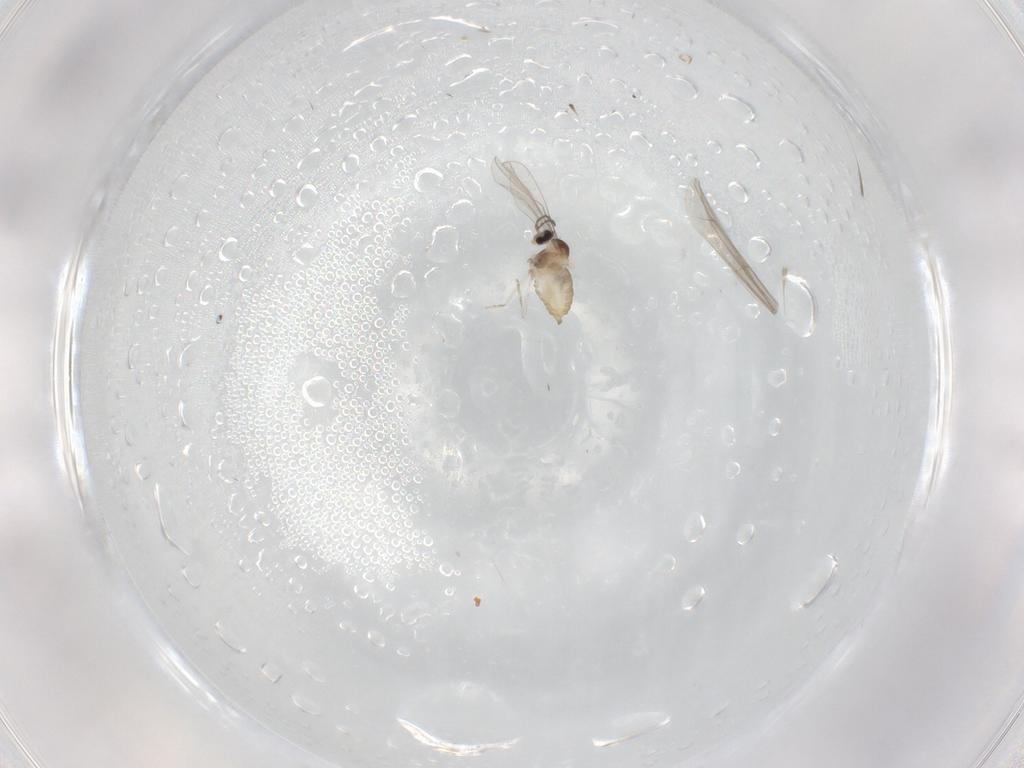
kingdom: Animalia
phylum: Arthropoda
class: Insecta
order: Diptera
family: Cecidomyiidae
